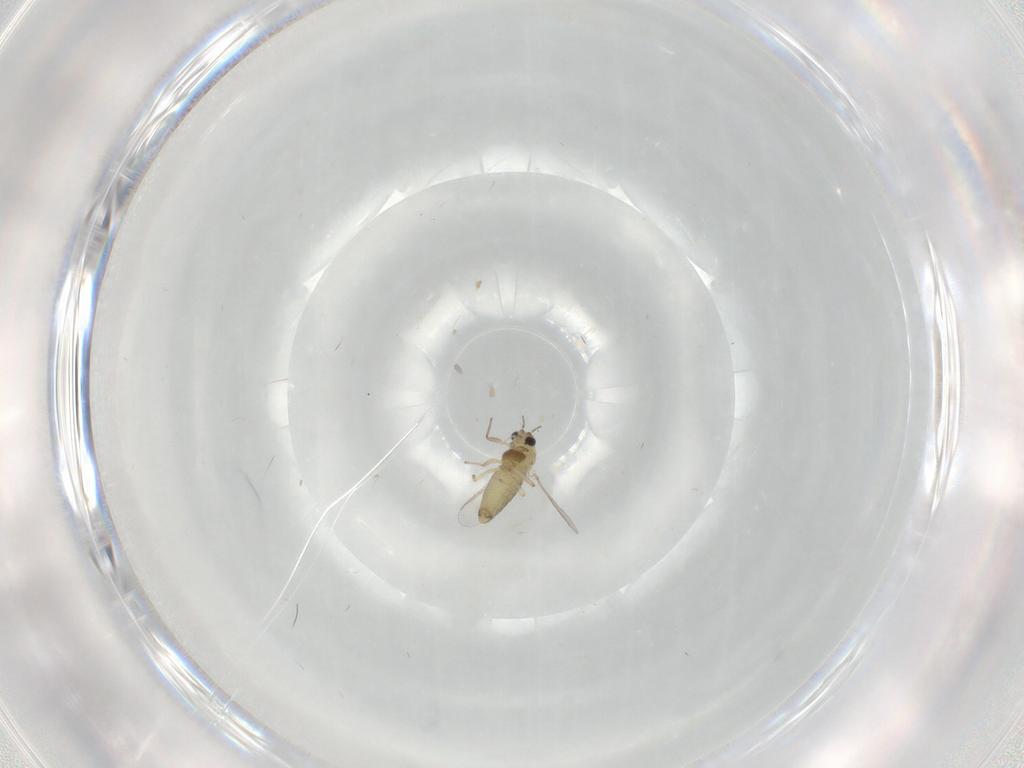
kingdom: Animalia
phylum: Arthropoda
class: Insecta
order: Diptera
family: Chironomidae
